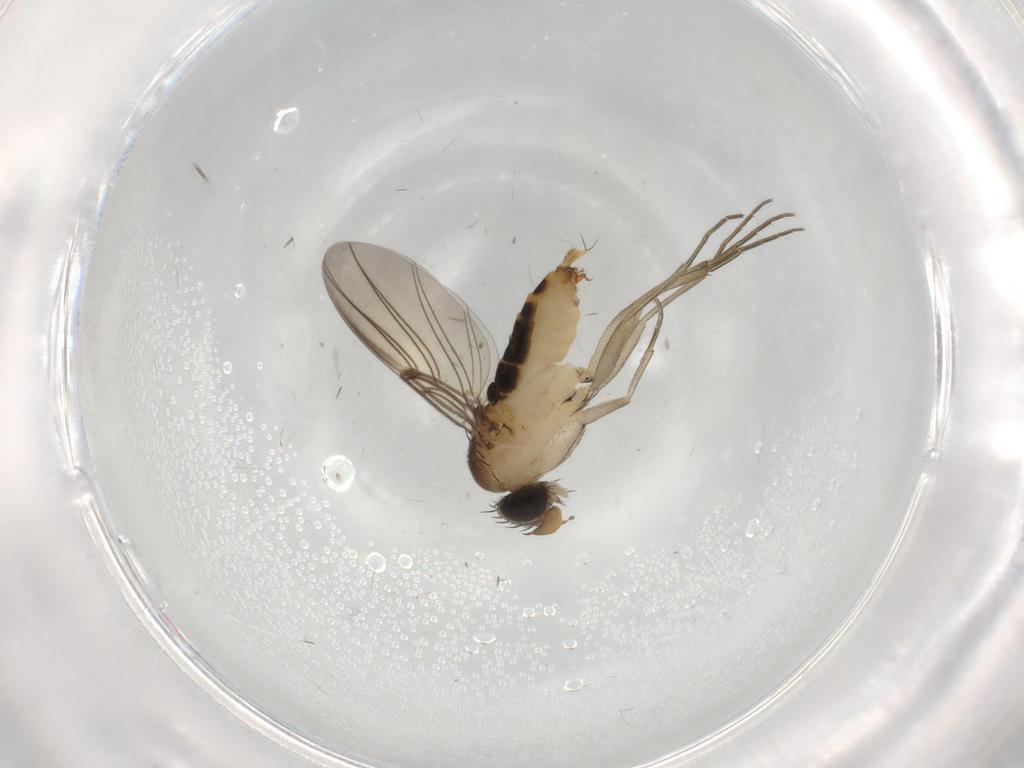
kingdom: Animalia
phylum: Arthropoda
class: Insecta
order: Diptera
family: Phoridae
